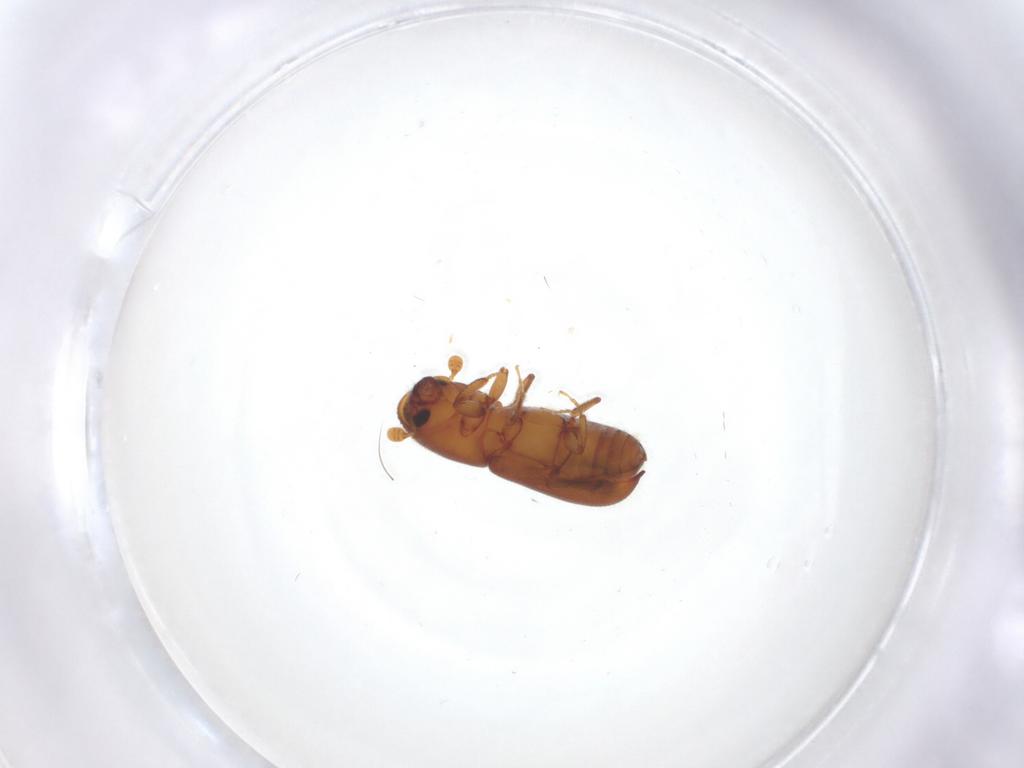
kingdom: Animalia
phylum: Arthropoda
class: Insecta
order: Coleoptera
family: Curculionidae
